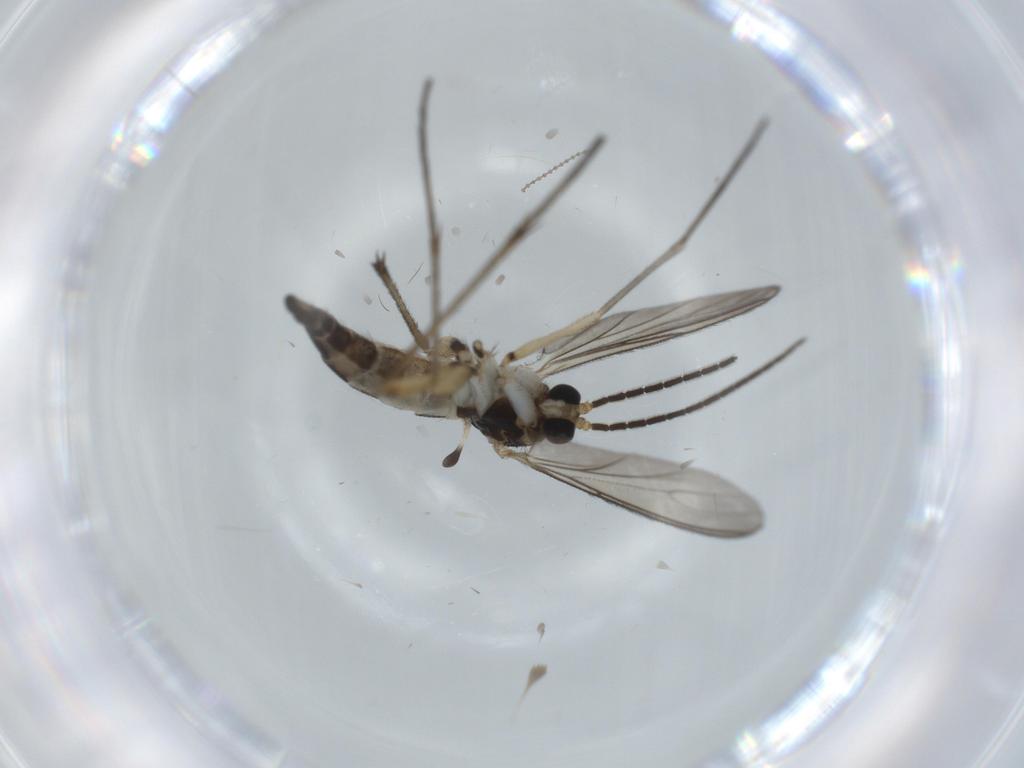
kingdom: Animalia
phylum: Arthropoda
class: Insecta
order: Diptera
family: Sciaridae
